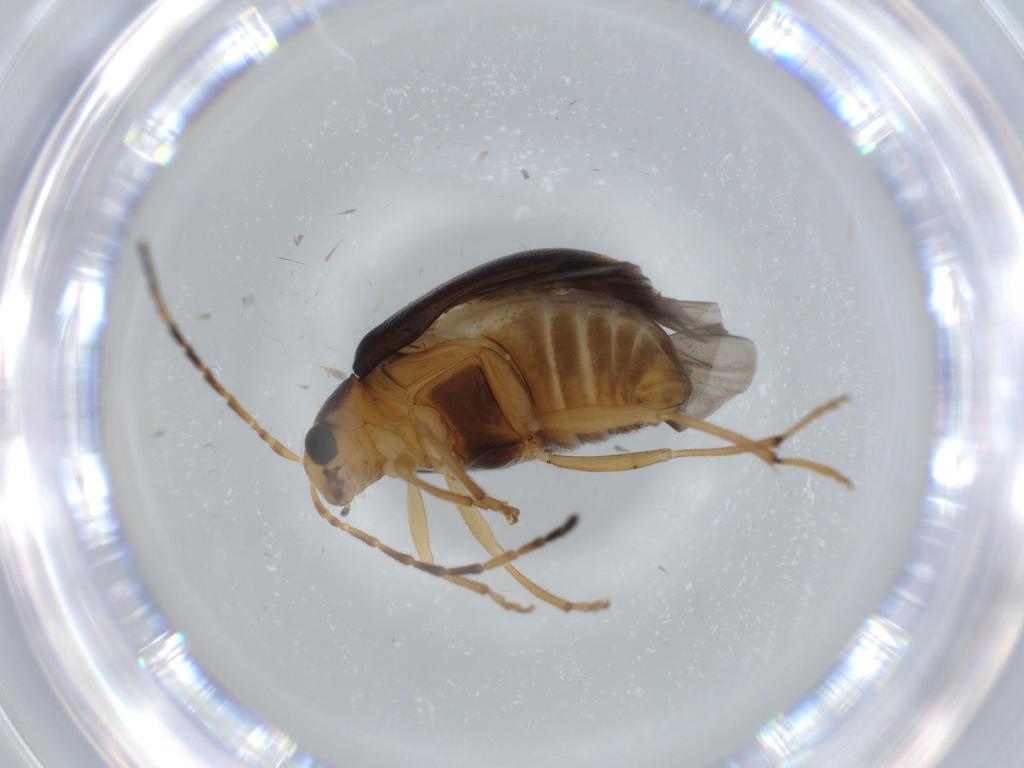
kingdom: Animalia
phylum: Arthropoda
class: Insecta
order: Coleoptera
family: Chrysomelidae
